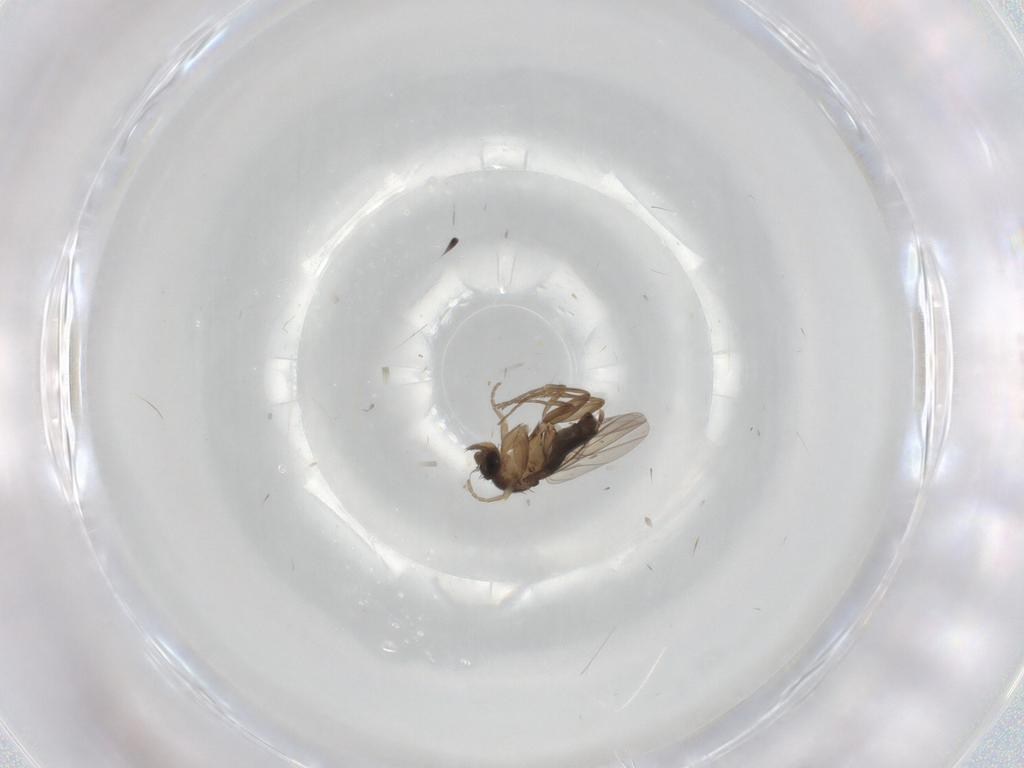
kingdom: Animalia
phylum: Arthropoda
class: Insecta
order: Diptera
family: Phoridae
